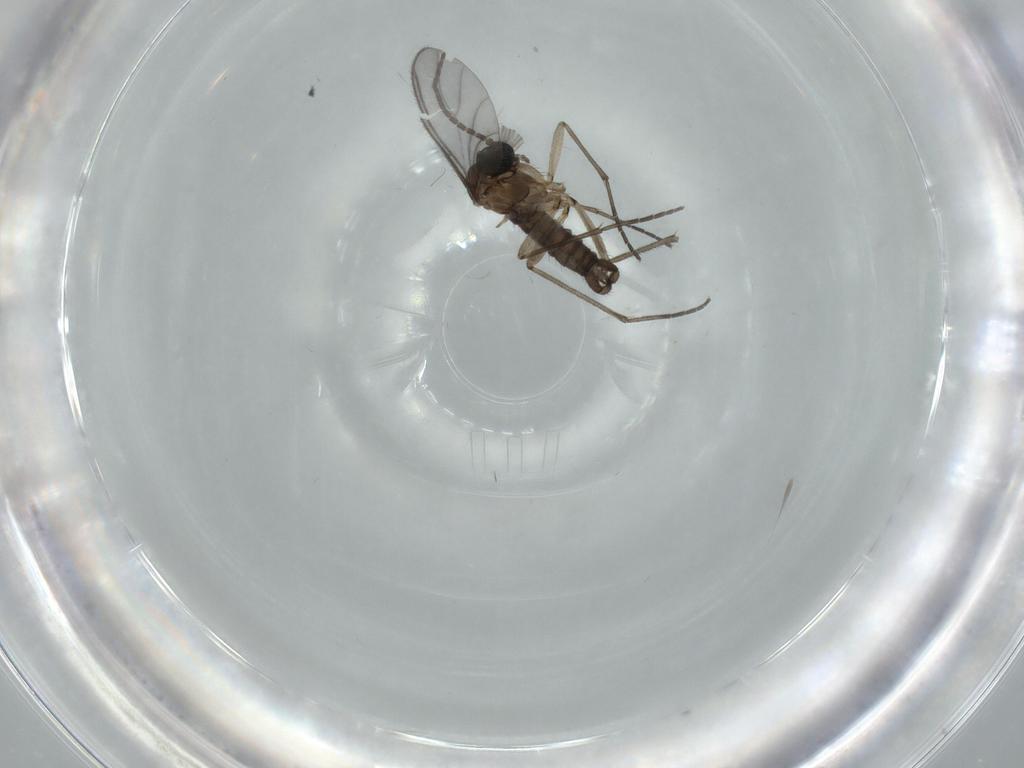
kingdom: Animalia
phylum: Arthropoda
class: Insecta
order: Diptera
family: Sciaridae
